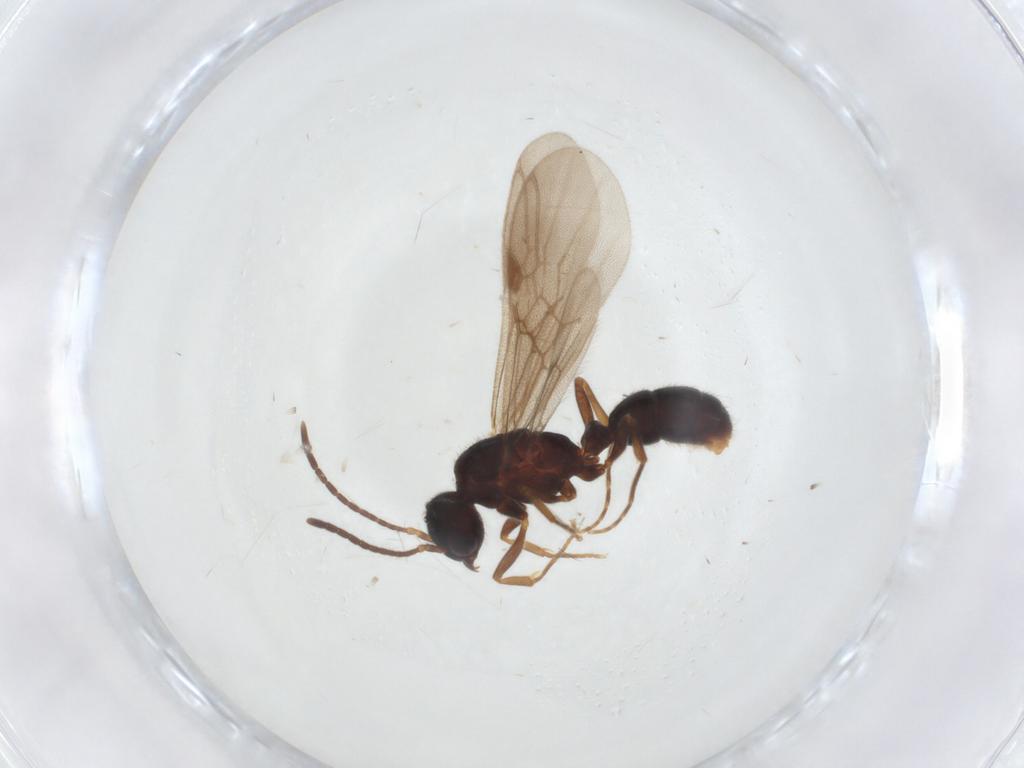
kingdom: Animalia
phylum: Arthropoda
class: Insecta
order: Hymenoptera
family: Formicidae
